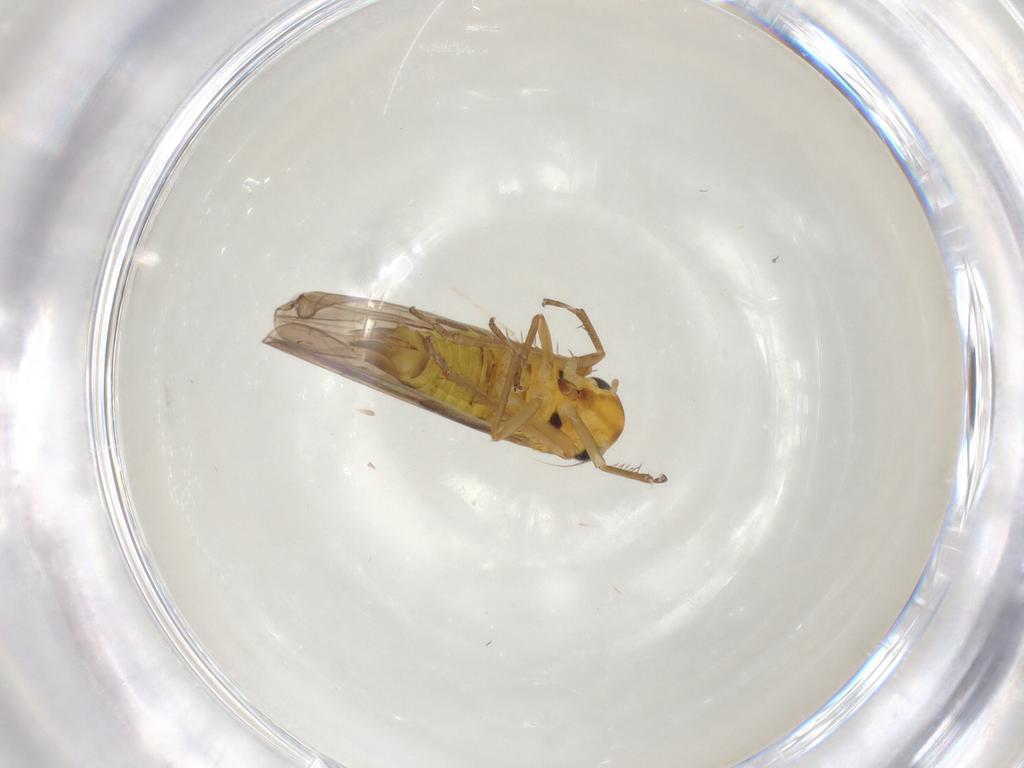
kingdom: Animalia
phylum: Arthropoda
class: Insecta
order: Hemiptera
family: Cicadellidae
